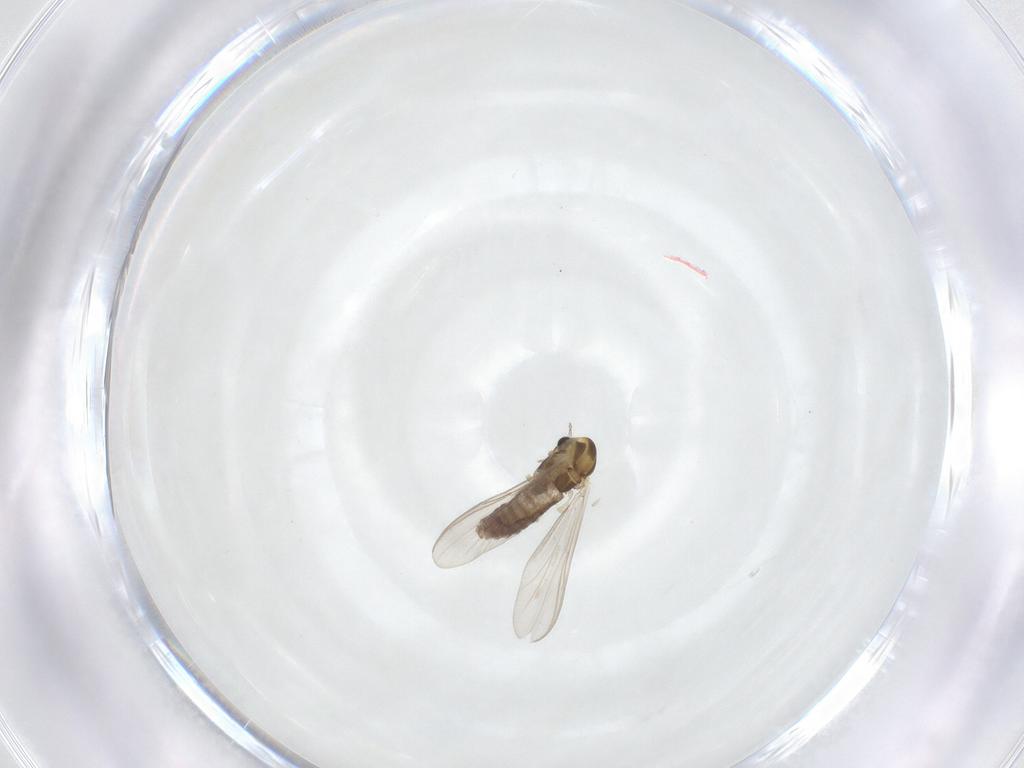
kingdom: Animalia
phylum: Arthropoda
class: Insecta
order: Diptera
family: Chironomidae
